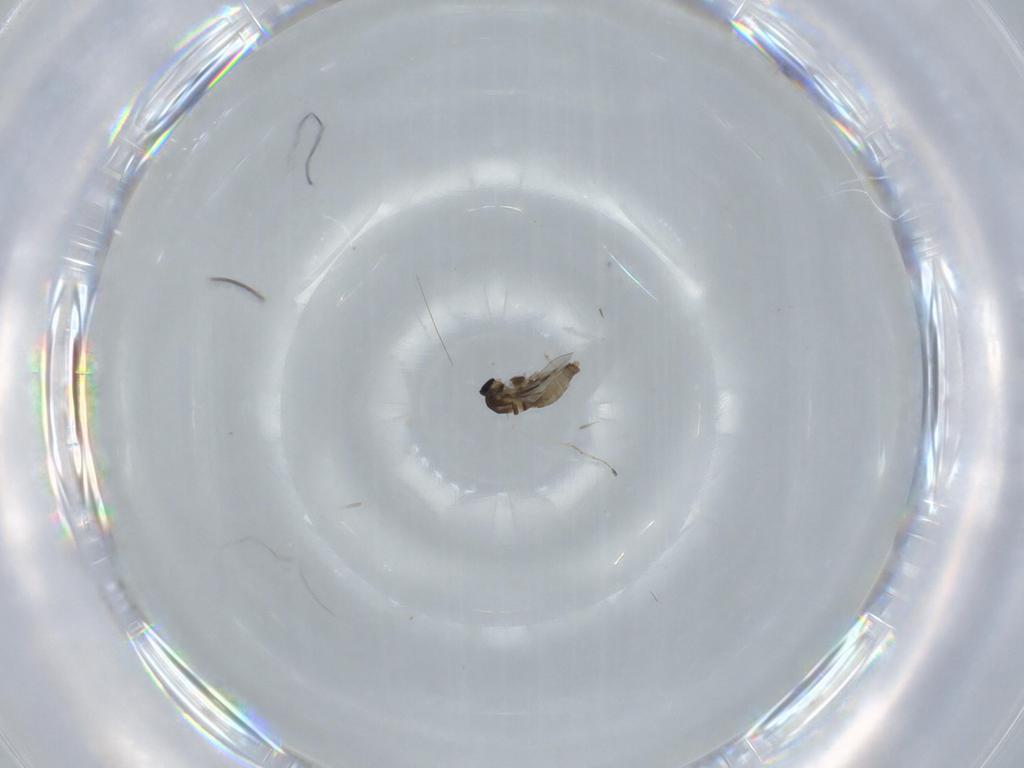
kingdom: Animalia
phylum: Arthropoda
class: Insecta
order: Diptera
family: Cecidomyiidae
